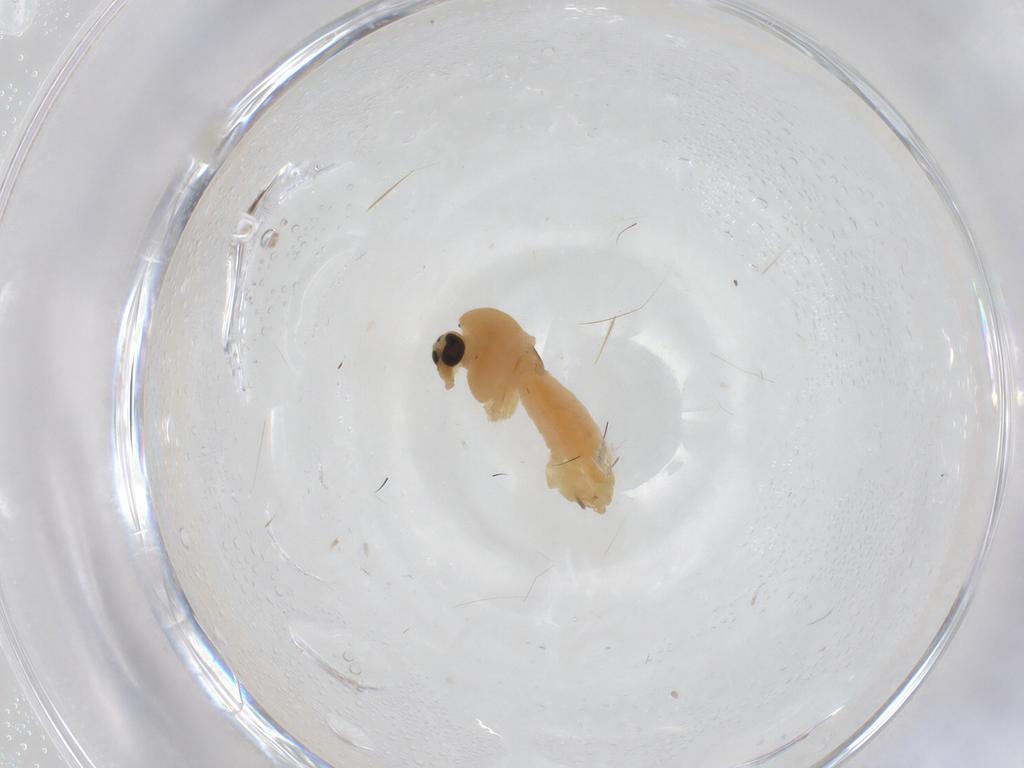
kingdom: Animalia
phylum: Arthropoda
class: Insecta
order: Diptera
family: Chironomidae
